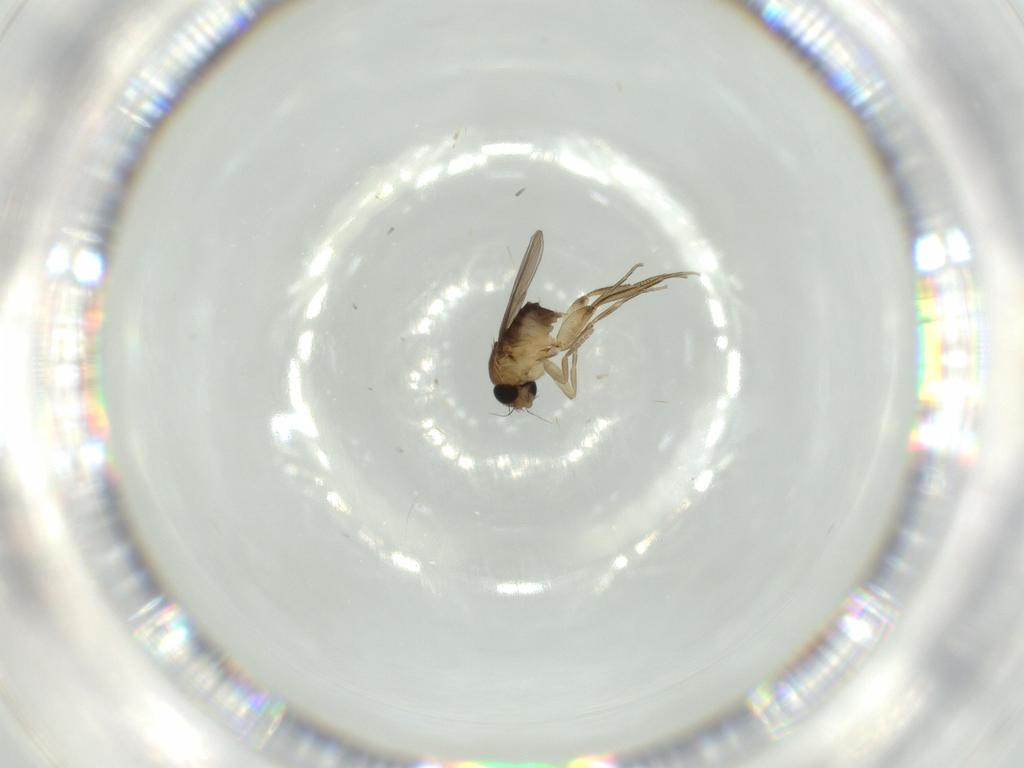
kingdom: Animalia
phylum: Arthropoda
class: Insecta
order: Diptera
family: Phoridae
